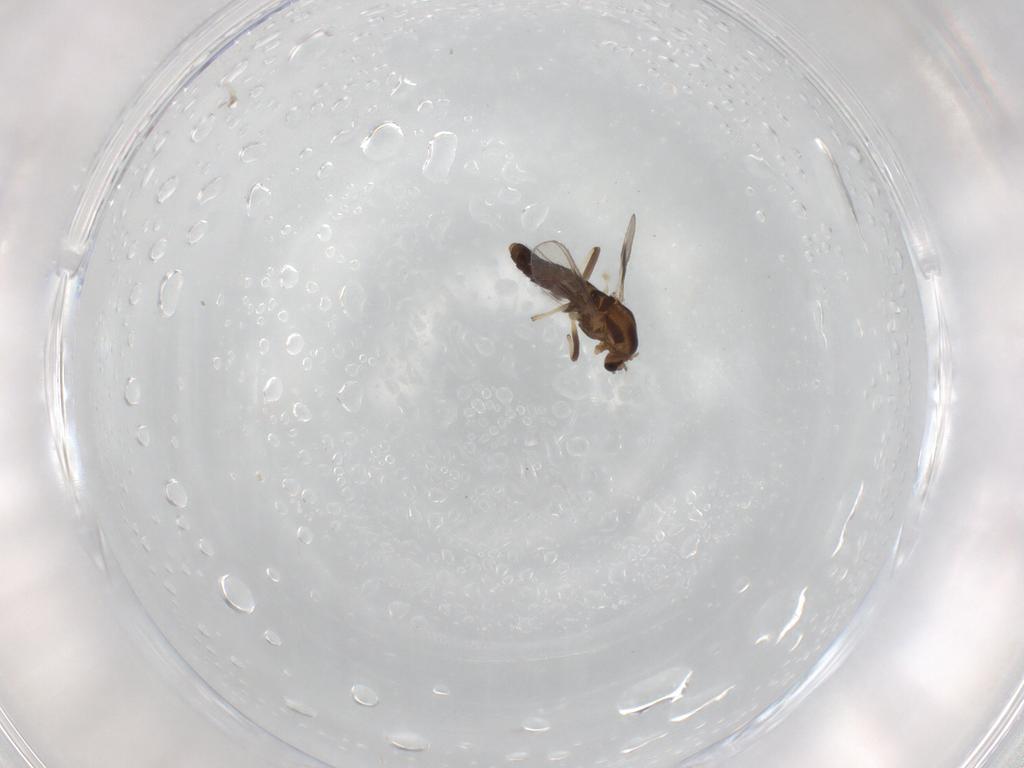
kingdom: Animalia
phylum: Arthropoda
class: Insecta
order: Diptera
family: Chironomidae
